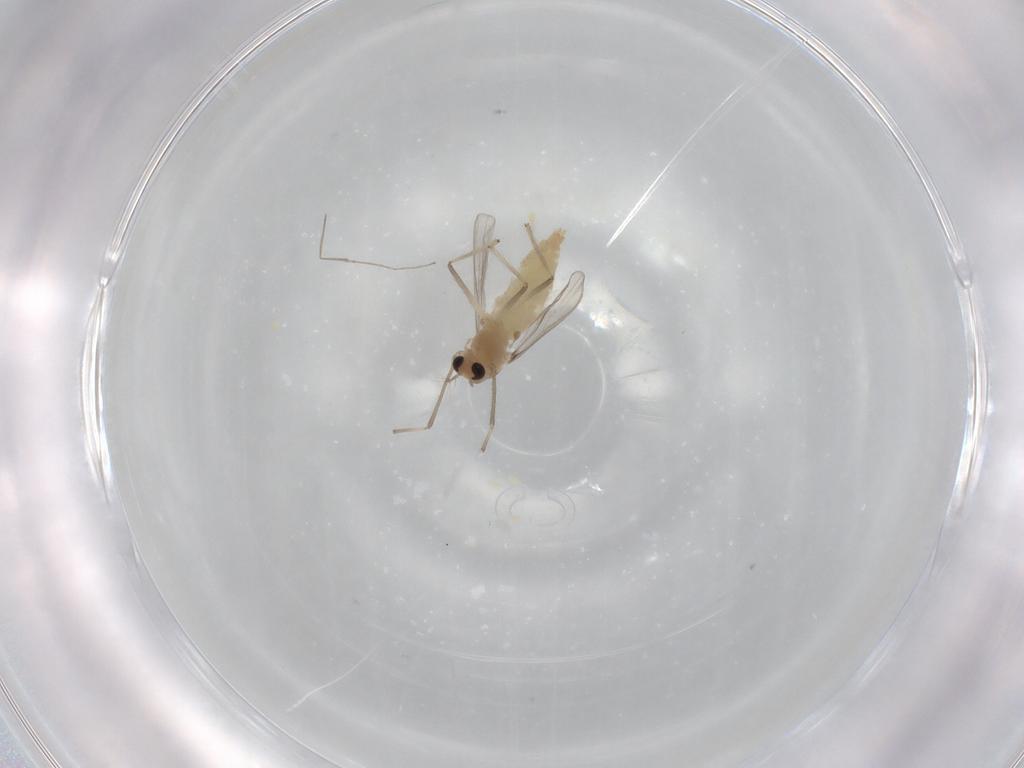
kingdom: Animalia
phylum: Arthropoda
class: Insecta
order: Diptera
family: Chironomidae
